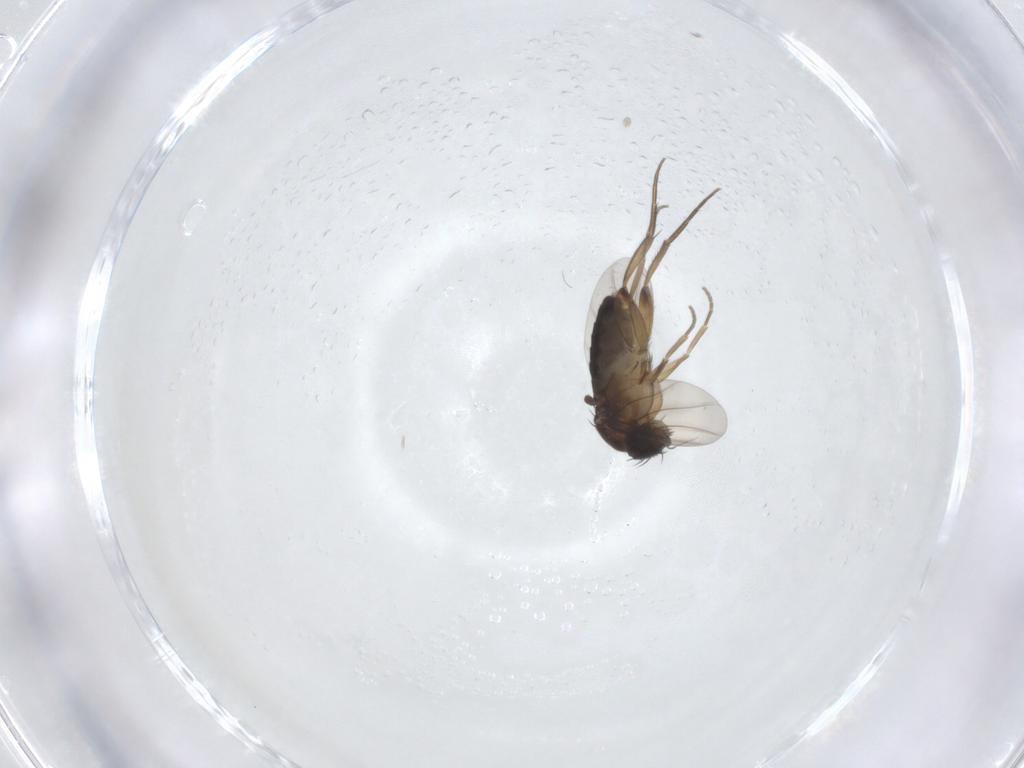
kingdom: Animalia
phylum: Arthropoda
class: Insecta
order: Diptera
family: Phoridae
